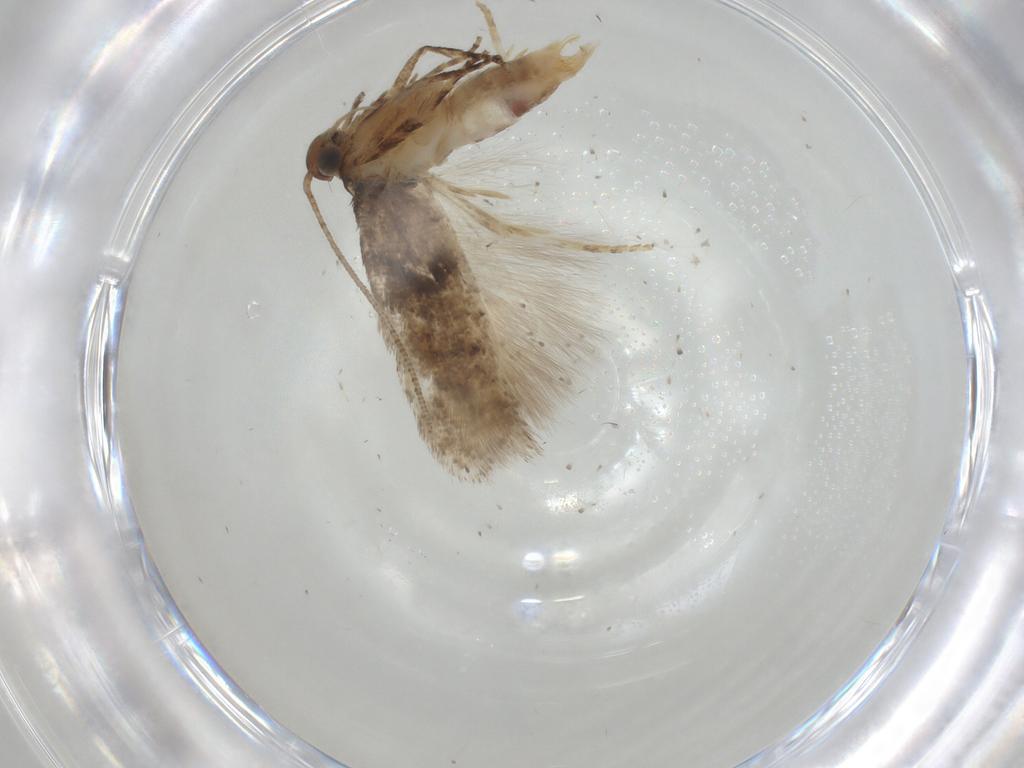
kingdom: Animalia
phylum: Arthropoda
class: Insecta
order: Lepidoptera
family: Gelechiidae
